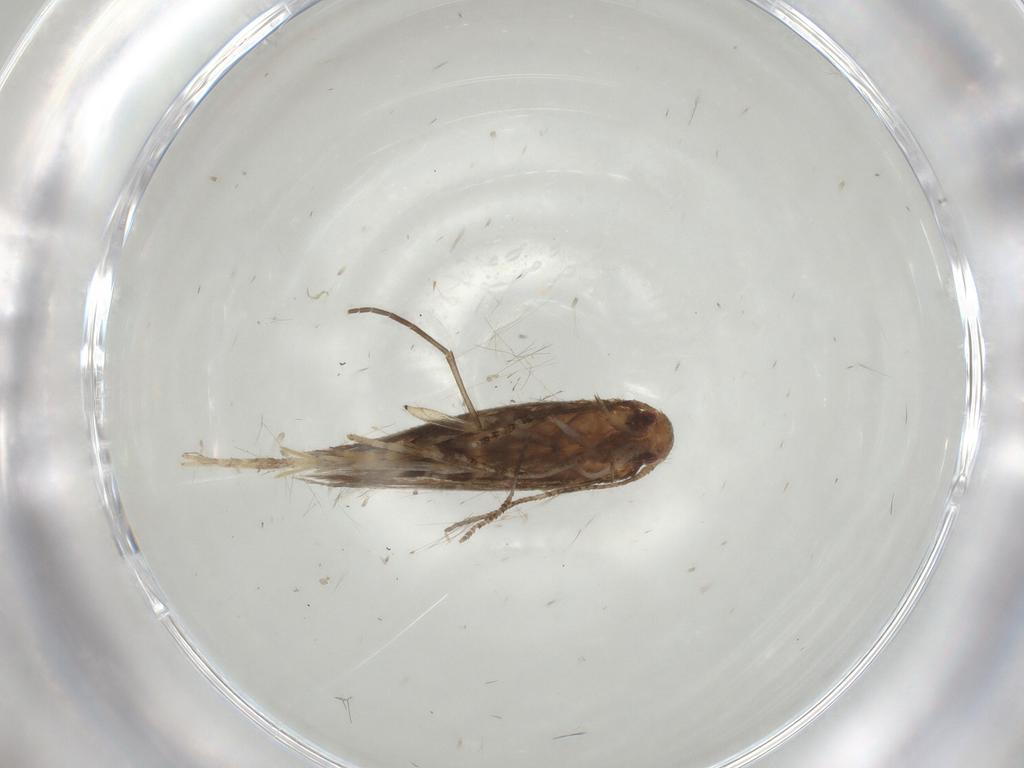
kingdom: Animalia
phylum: Arthropoda
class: Insecta
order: Lepidoptera
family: Momphidae
